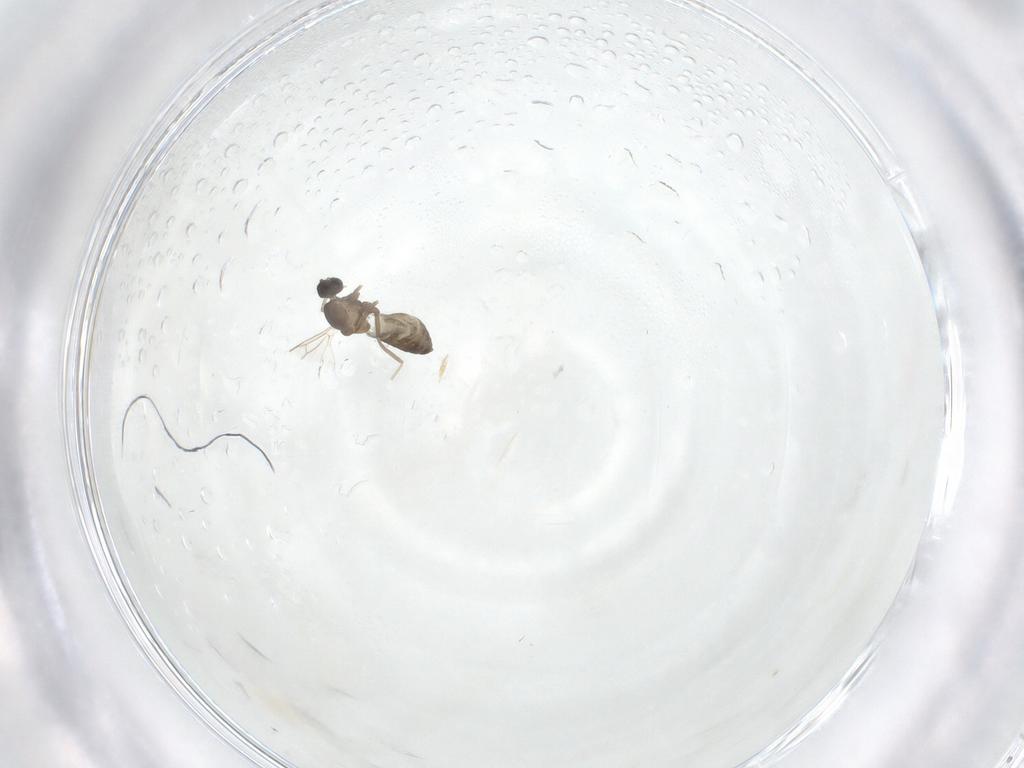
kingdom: Animalia
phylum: Arthropoda
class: Insecta
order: Diptera
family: Cecidomyiidae
